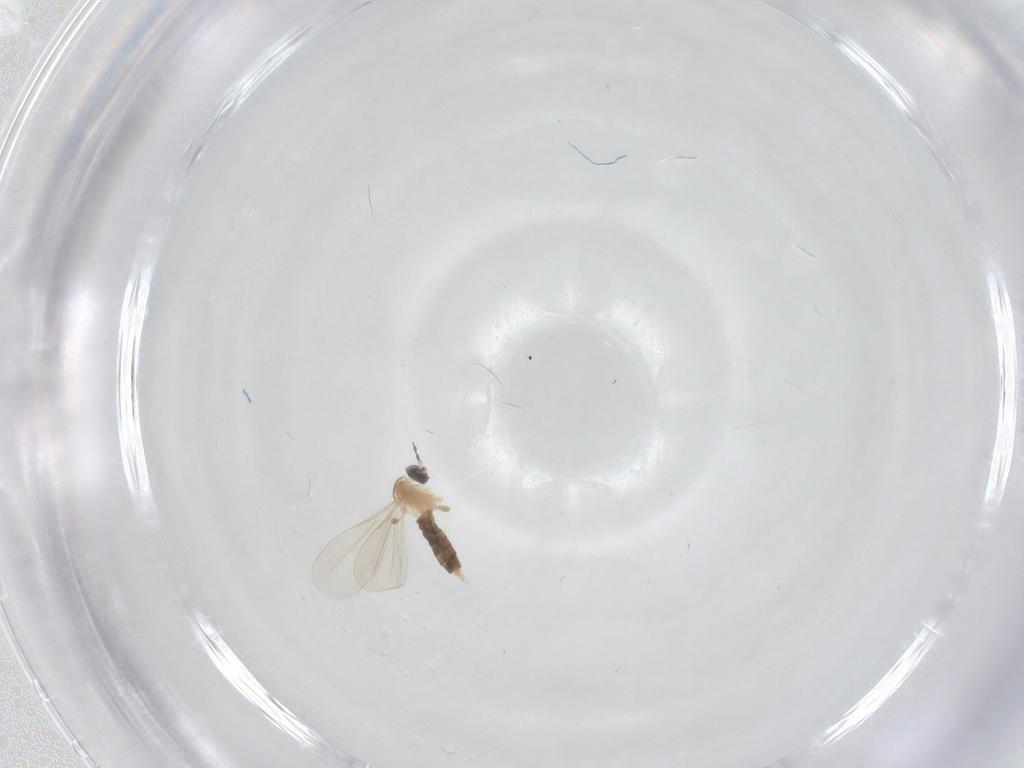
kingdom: Animalia
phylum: Arthropoda
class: Insecta
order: Diptera
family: Cecidomyiidae
